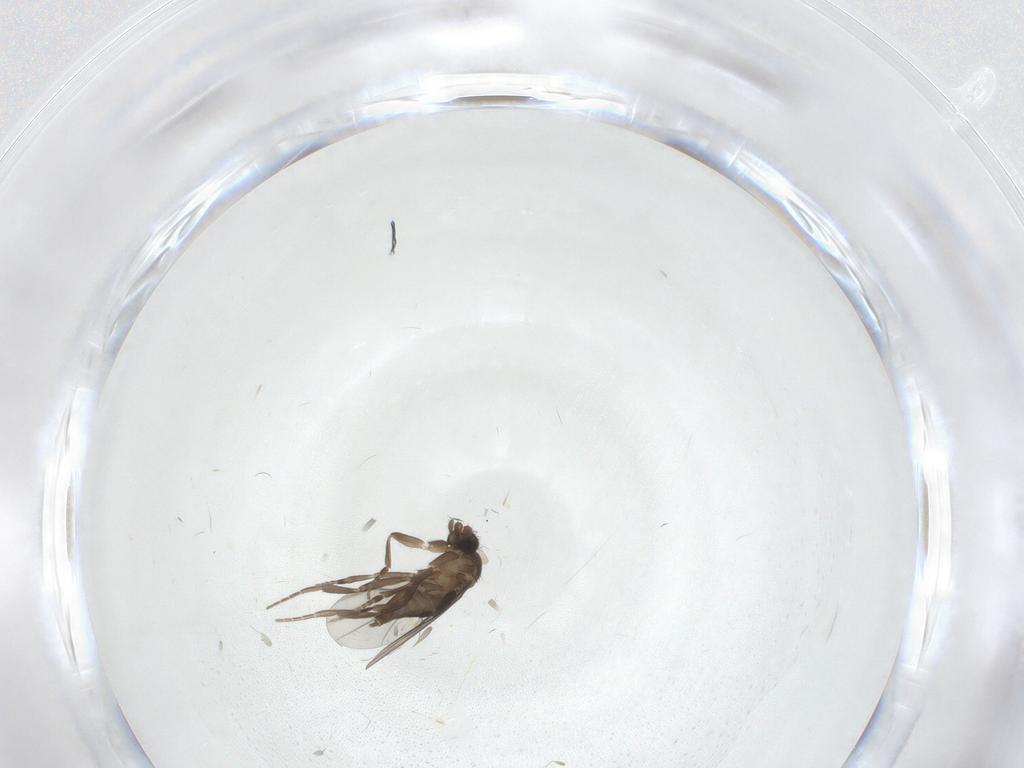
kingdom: Animalia
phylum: Arthropoda
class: Insecta
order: Diptera
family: Phoridae
